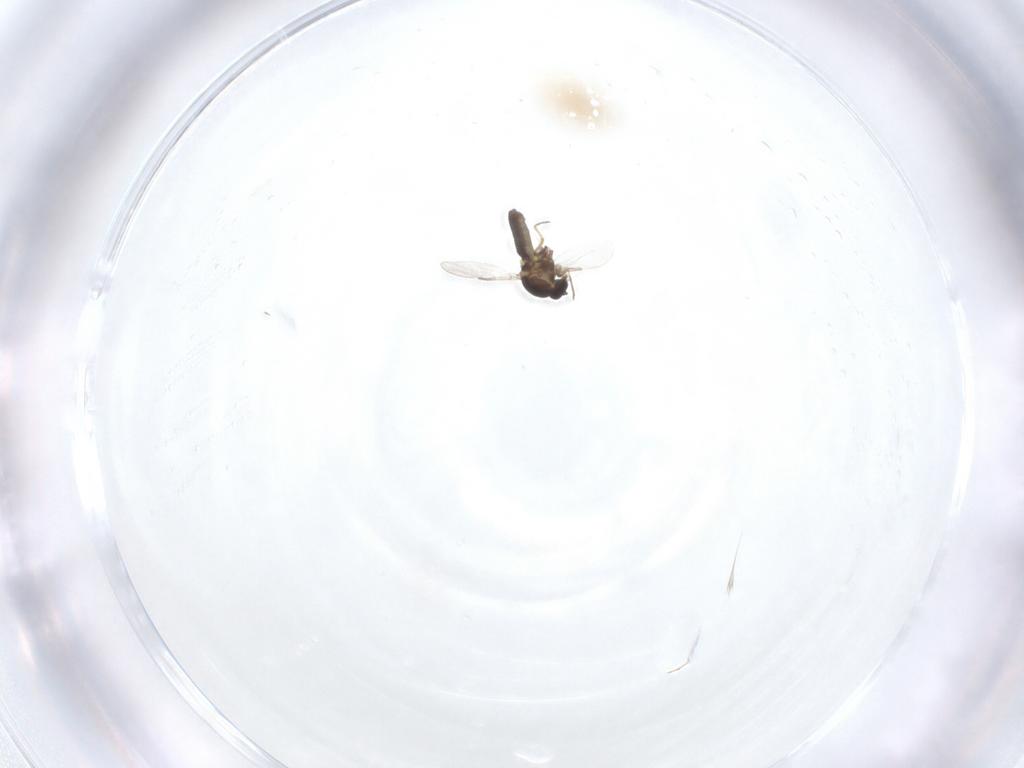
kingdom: Animalia
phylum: Arthropoda
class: Insecta
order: Diptera
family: Ceratopogonidae
